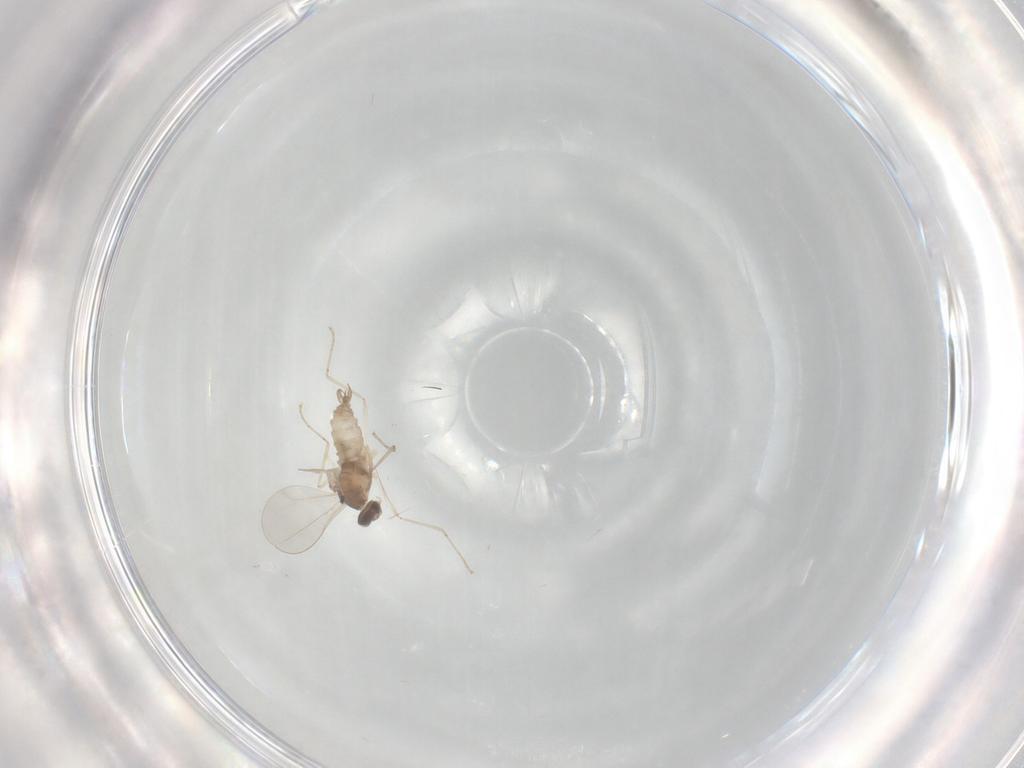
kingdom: Animalia
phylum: Arthropoda
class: Insecta
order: Diptera
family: Cecidomyiidae
